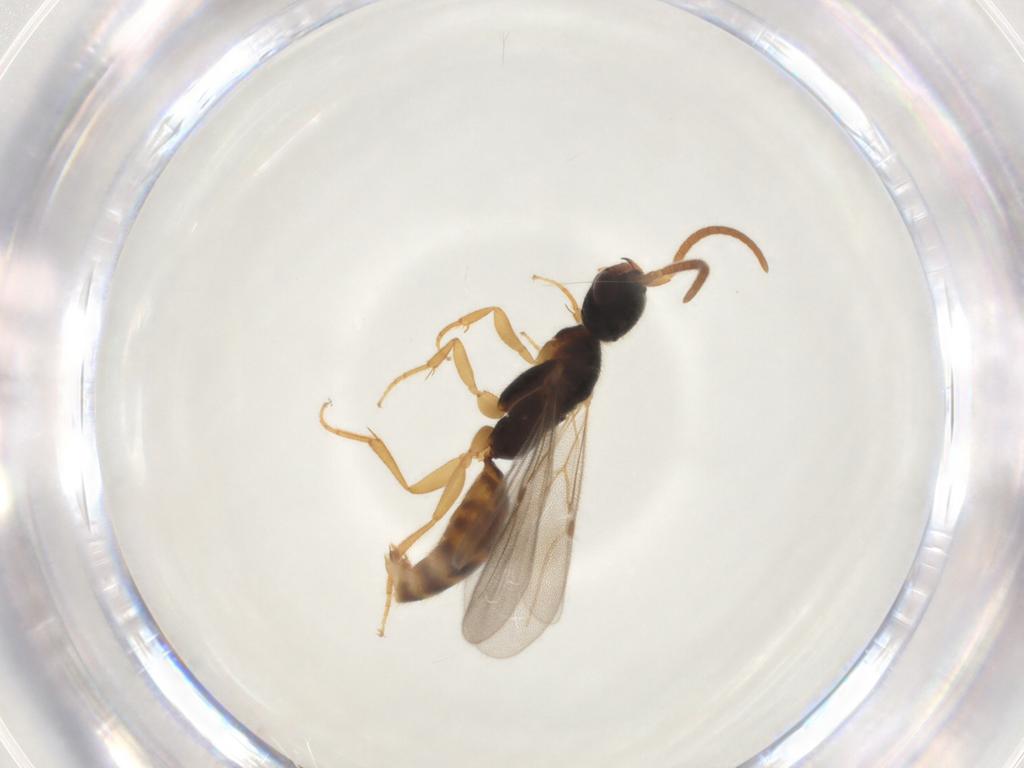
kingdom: Animalia
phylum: Arthropoda
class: Insecta
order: Hymenoptera
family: Bethylidae
